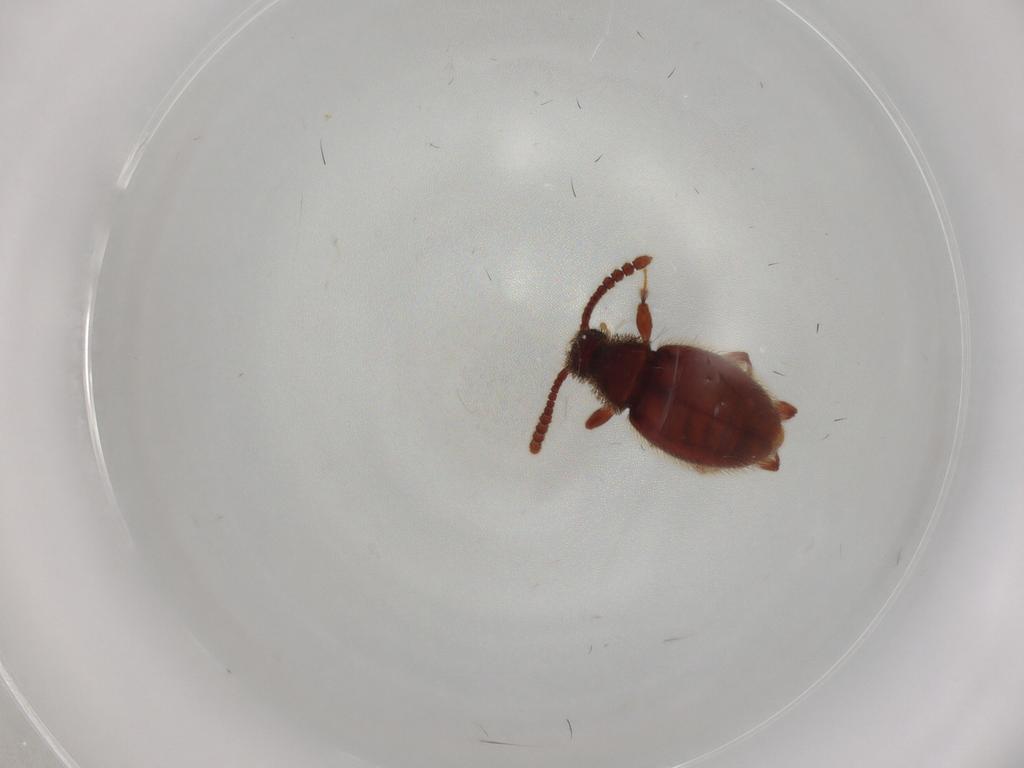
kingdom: Animalia
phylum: Arthropoda
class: Insecta
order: Coleoptera
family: Staphylinidae
